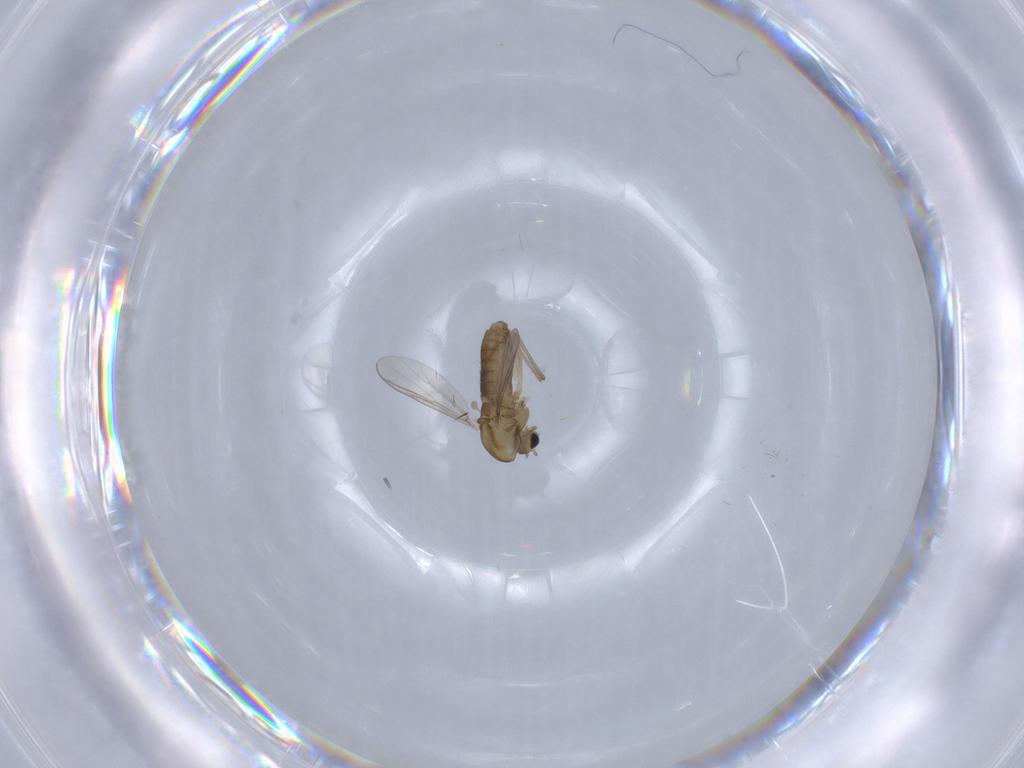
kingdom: Animalia
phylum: Arthropoda
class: Insecta
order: Diptera
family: Chironomidae
